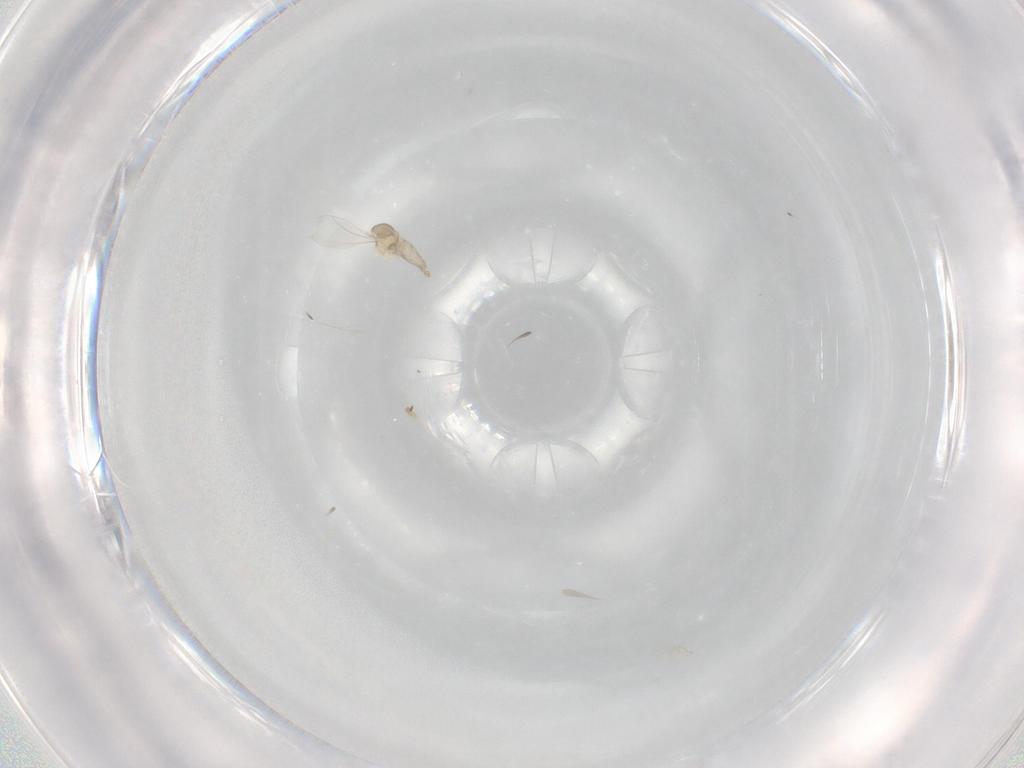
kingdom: Animalia
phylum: Arthropoda
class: Insecta
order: Diptera
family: Cecidomyiidae
